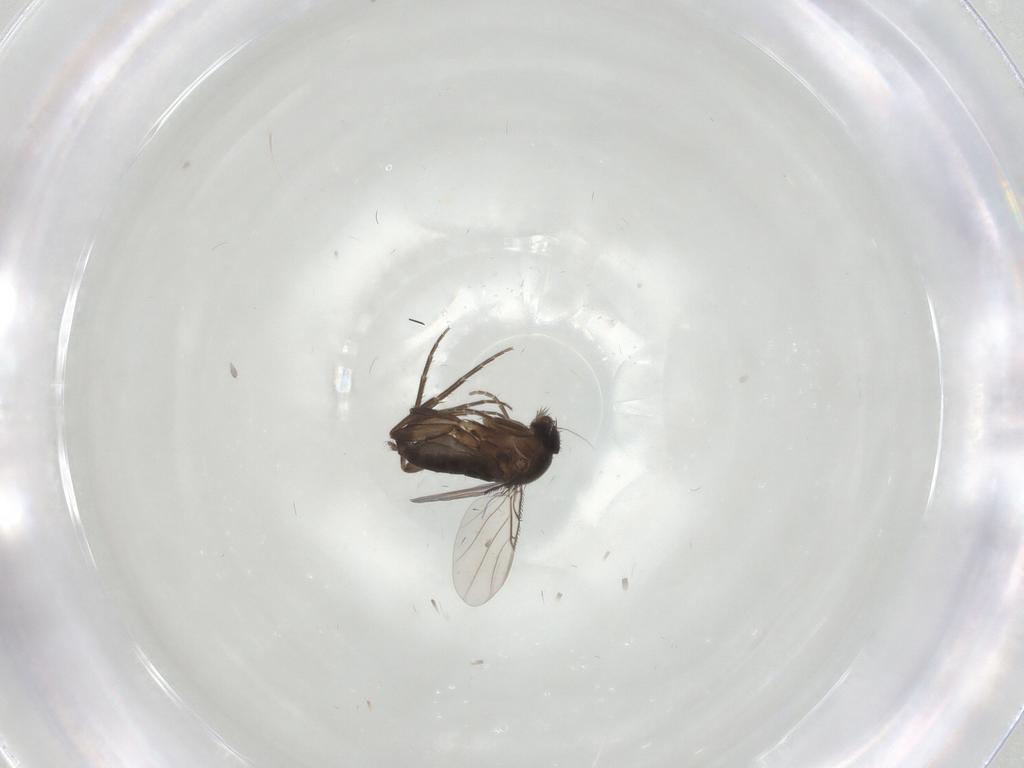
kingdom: Animalia
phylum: Arthropoda
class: Insecta
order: Diptera
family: Phoridae
